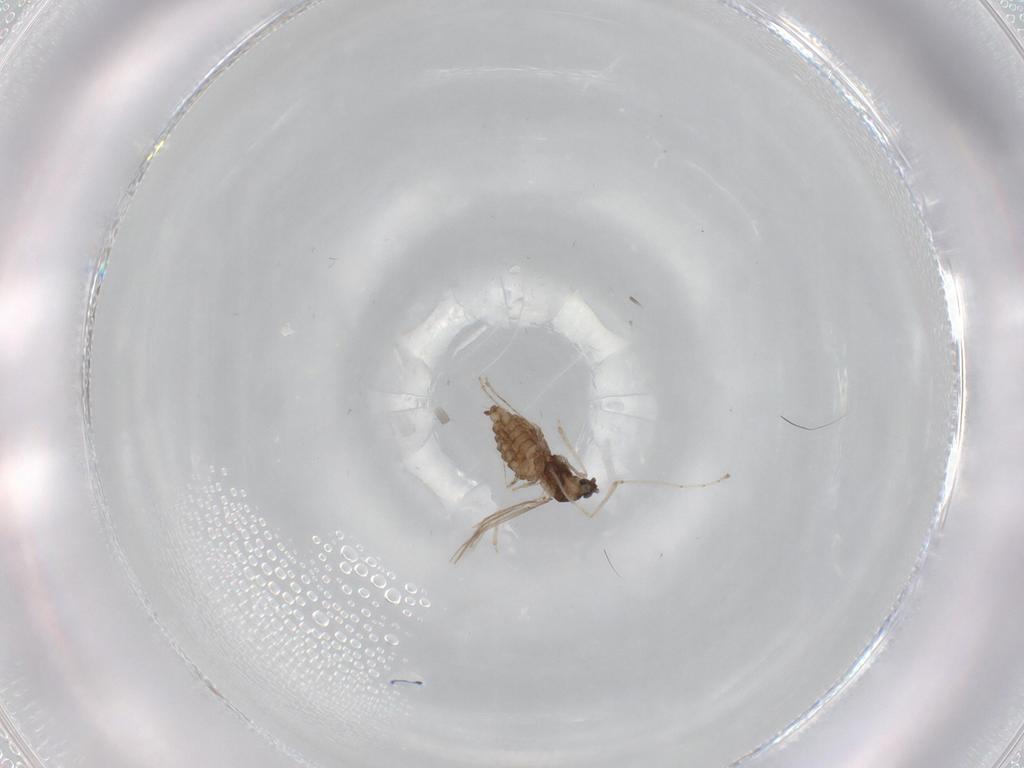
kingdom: Animalia
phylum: Arthropoda
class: Insecta
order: Diptera
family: Cecidomyiidae
